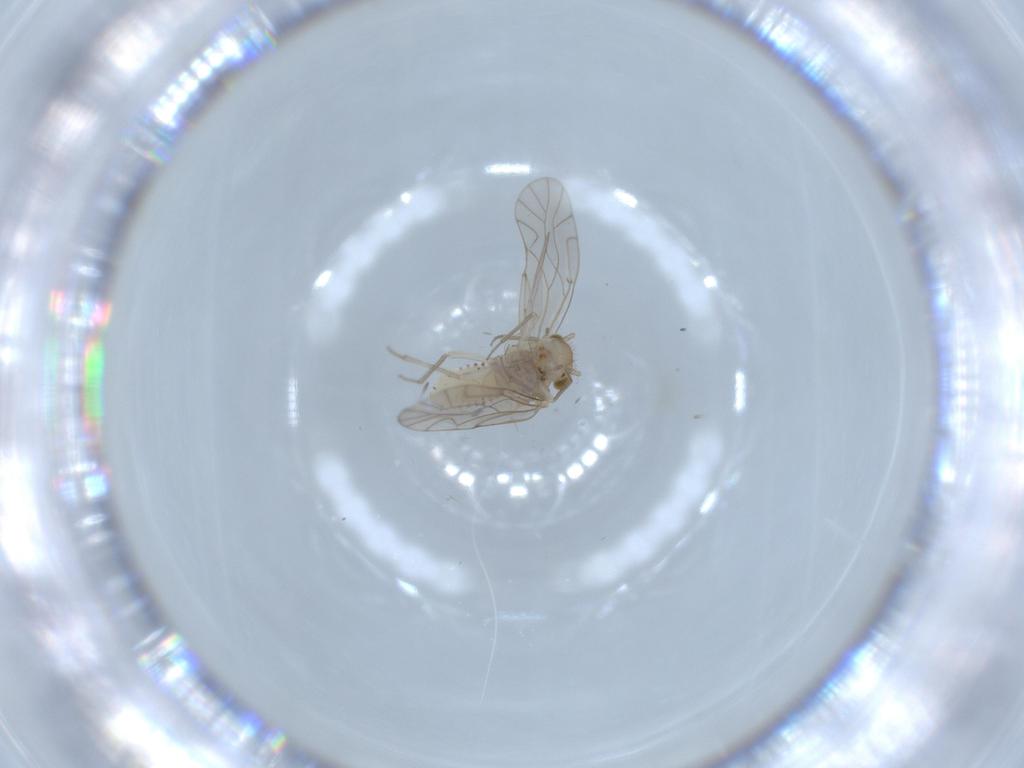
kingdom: Animalia
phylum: Arthropoda
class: Insecta
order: Psocodea
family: Lachesillidae
